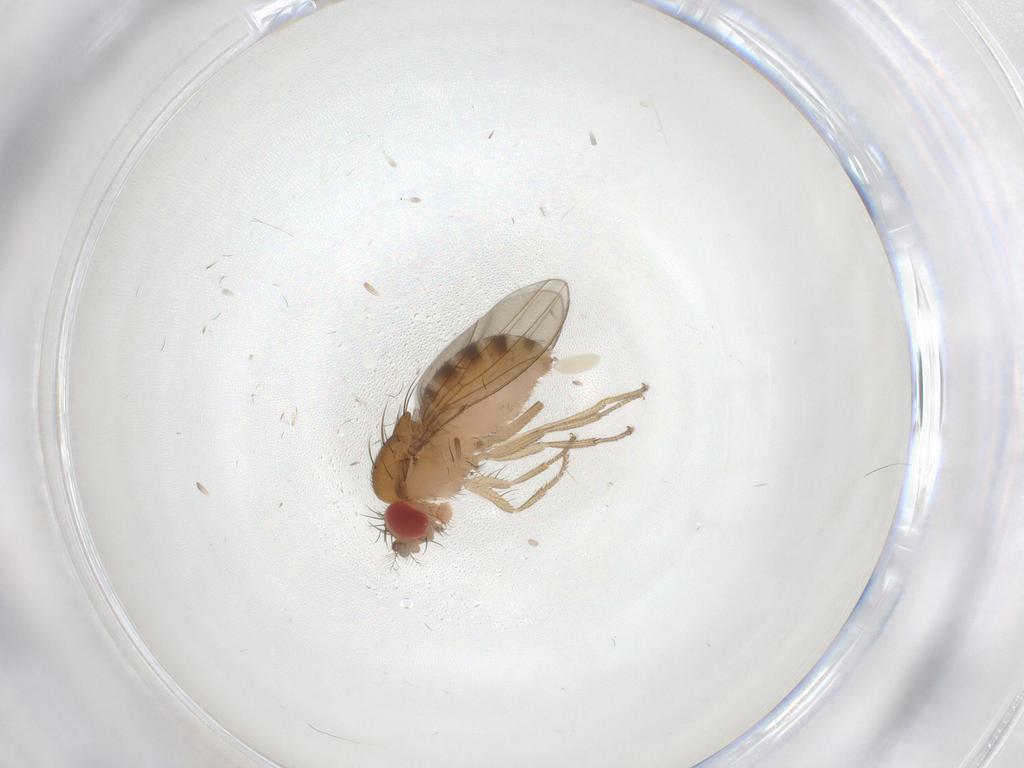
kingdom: Animalia
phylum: Arthropoda
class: Insecta
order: Diptera
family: Drosophilidae
